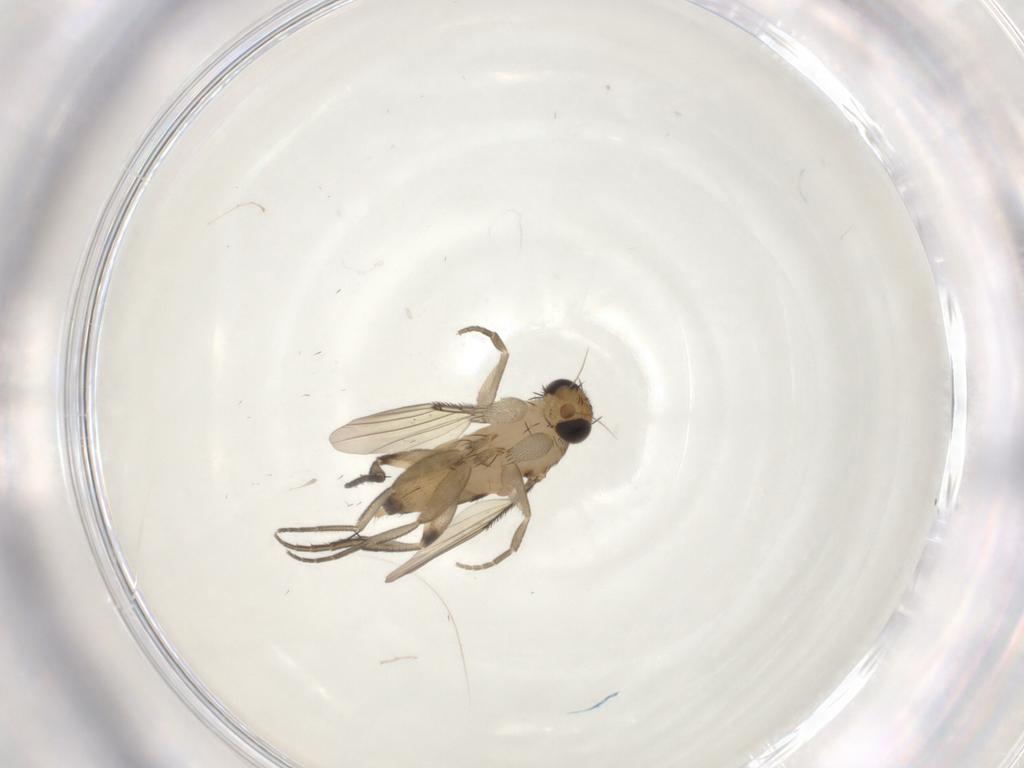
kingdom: Animalia
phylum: Arthropoda
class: Insecta
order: Diptera
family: Phoridae
